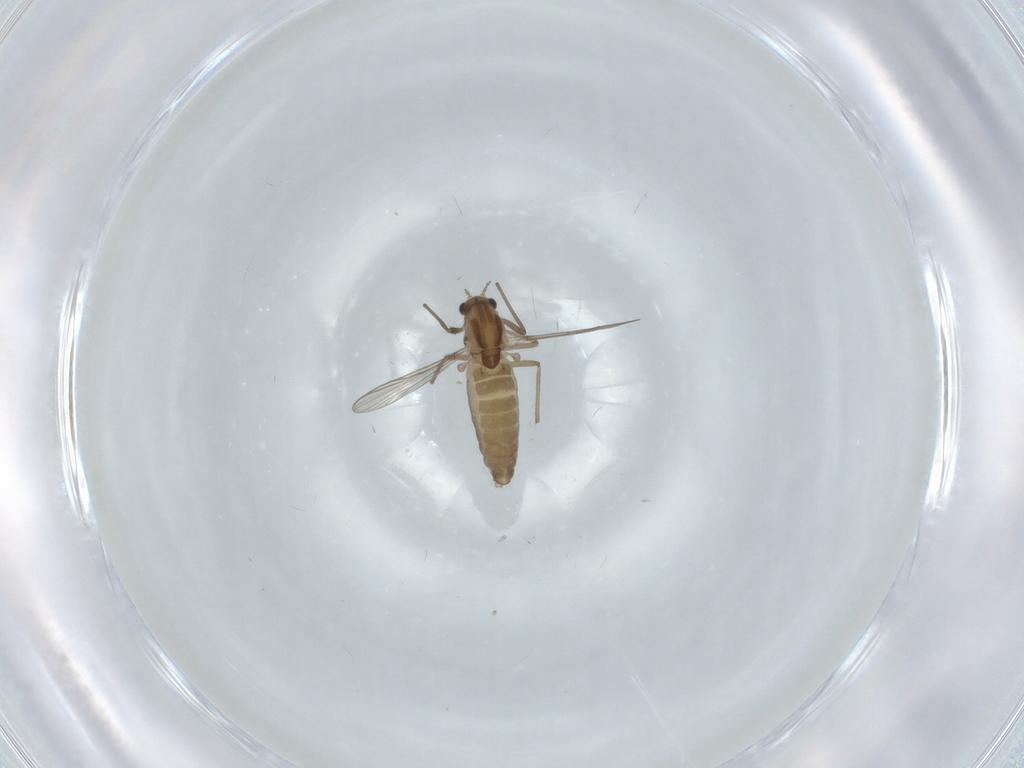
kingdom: Animalia
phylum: Arthropoda
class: Insecta
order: Diptera
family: Chironomidae
